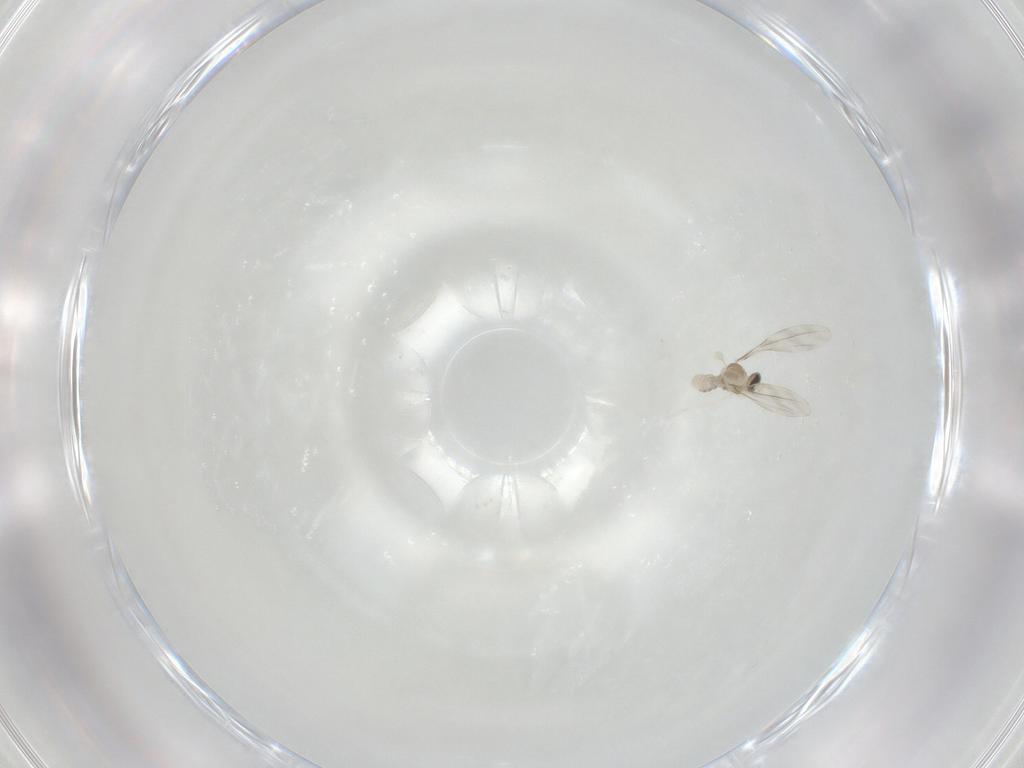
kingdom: Animalia
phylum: Arthropoda
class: Insecta
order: Diptera
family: Cecidomyiidae
